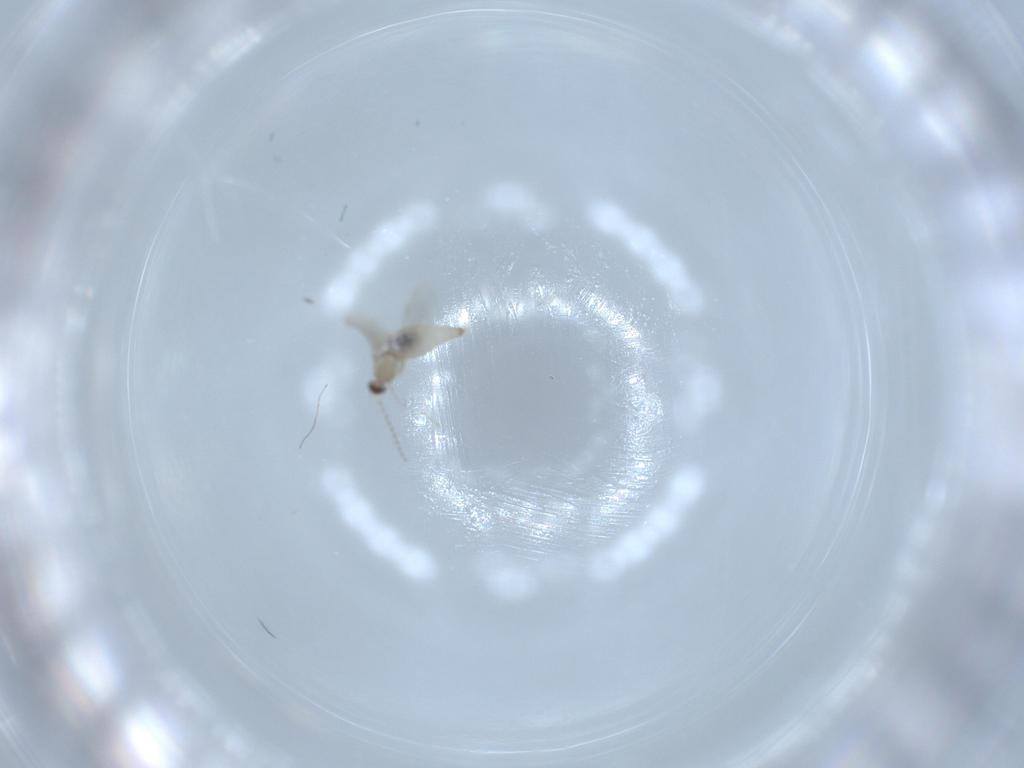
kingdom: Animalia
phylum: Arthropoda
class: Insecta
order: Diptera
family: Cecidomyiidae
